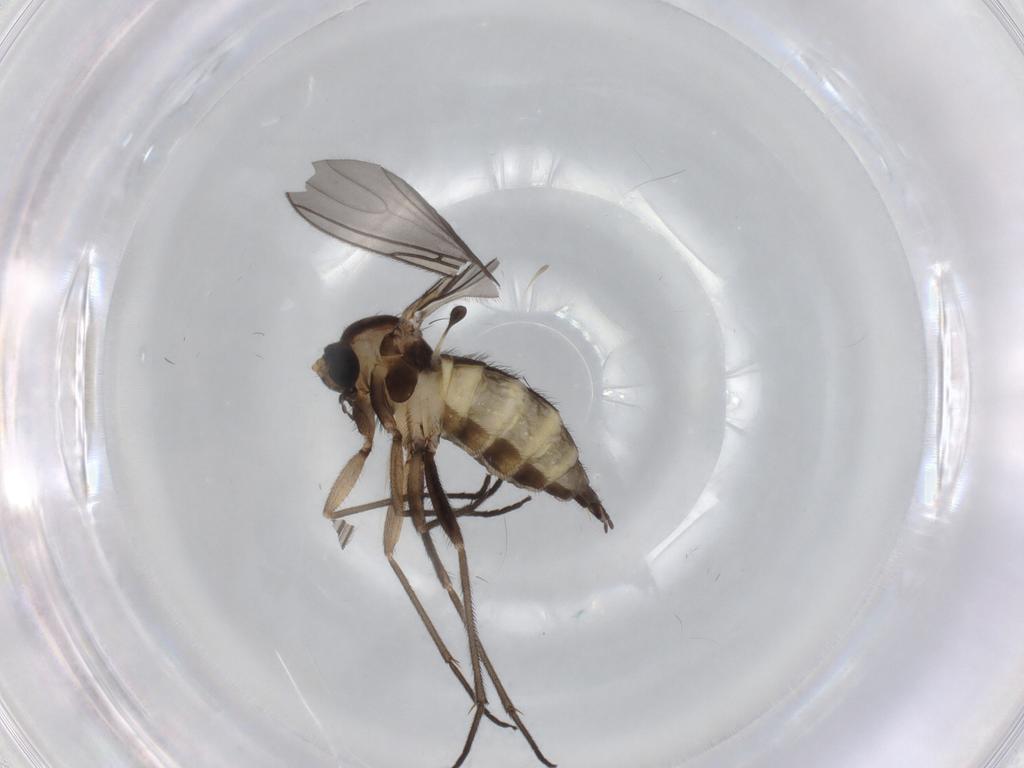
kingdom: Animalia
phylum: Arthropoda
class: Insecta
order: Diptera
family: Sciaridae
